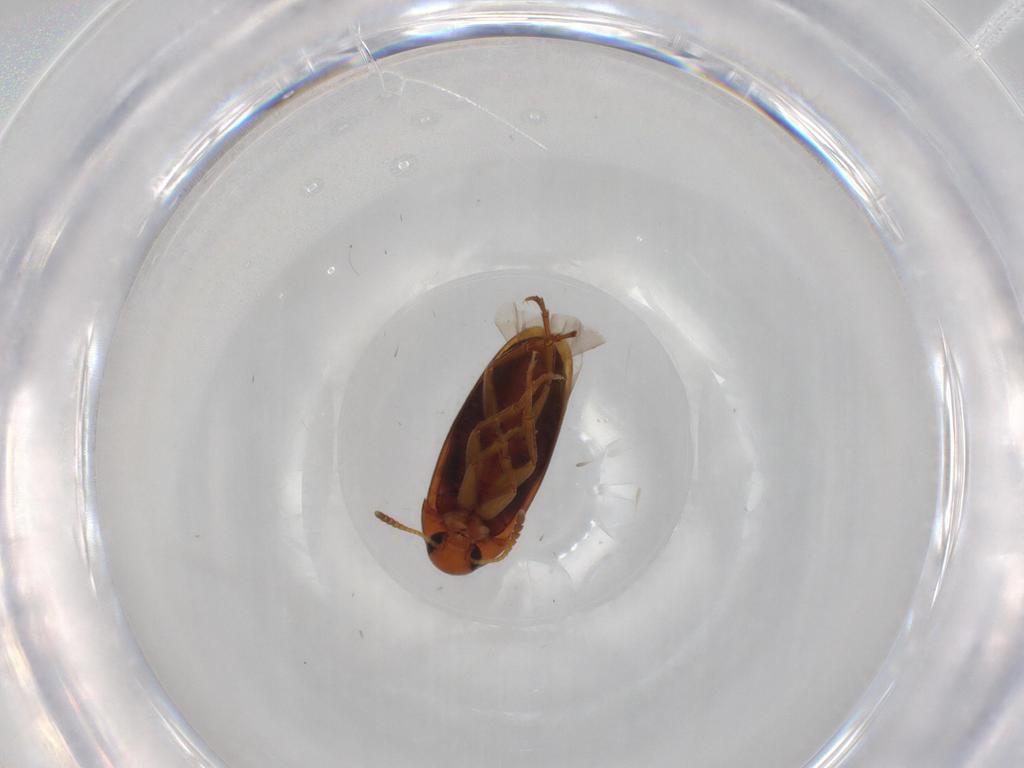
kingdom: Animalia
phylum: Arthropoda
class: Insecta
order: Coleoptera
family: Scraptiidae
